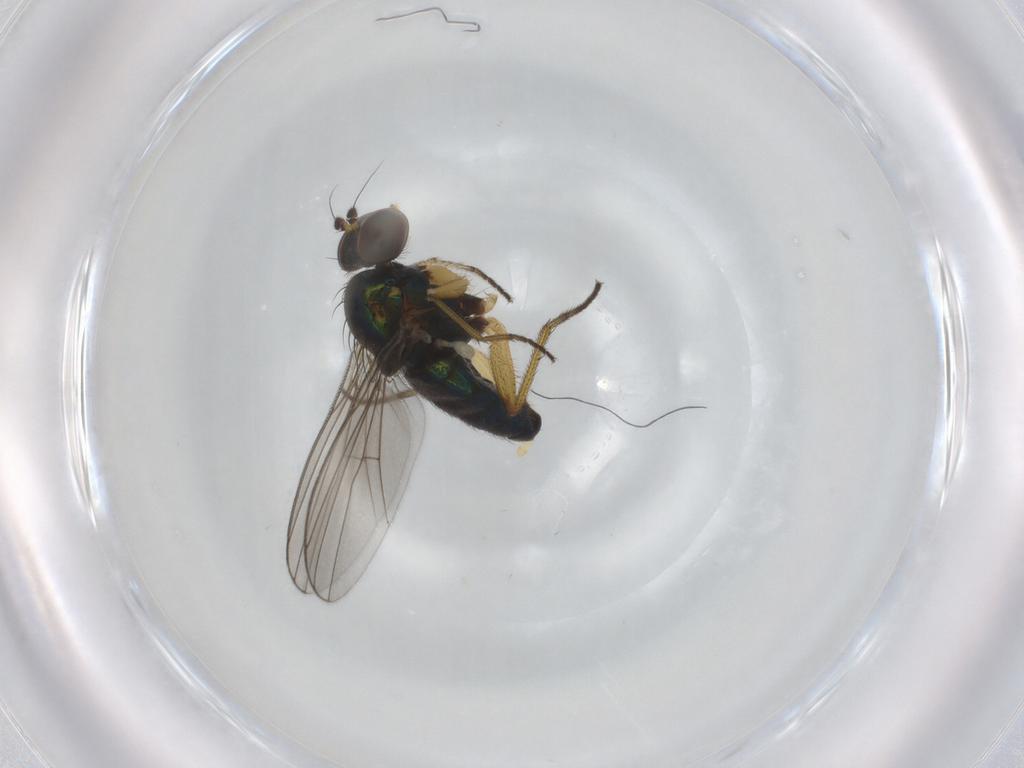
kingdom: Animalia
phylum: Arthropoda
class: Insecta
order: Diptera
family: Sciaridae
